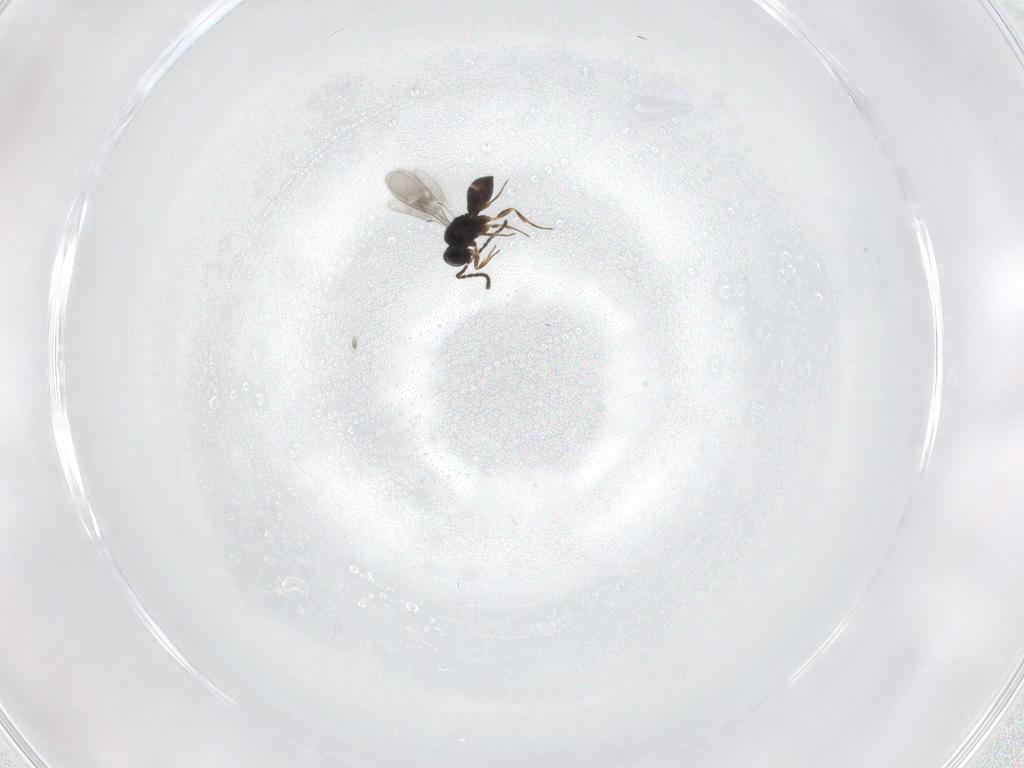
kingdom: Animalia
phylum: Arthropoda
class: Insecta
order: Hymenoptera
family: Scelionidae
